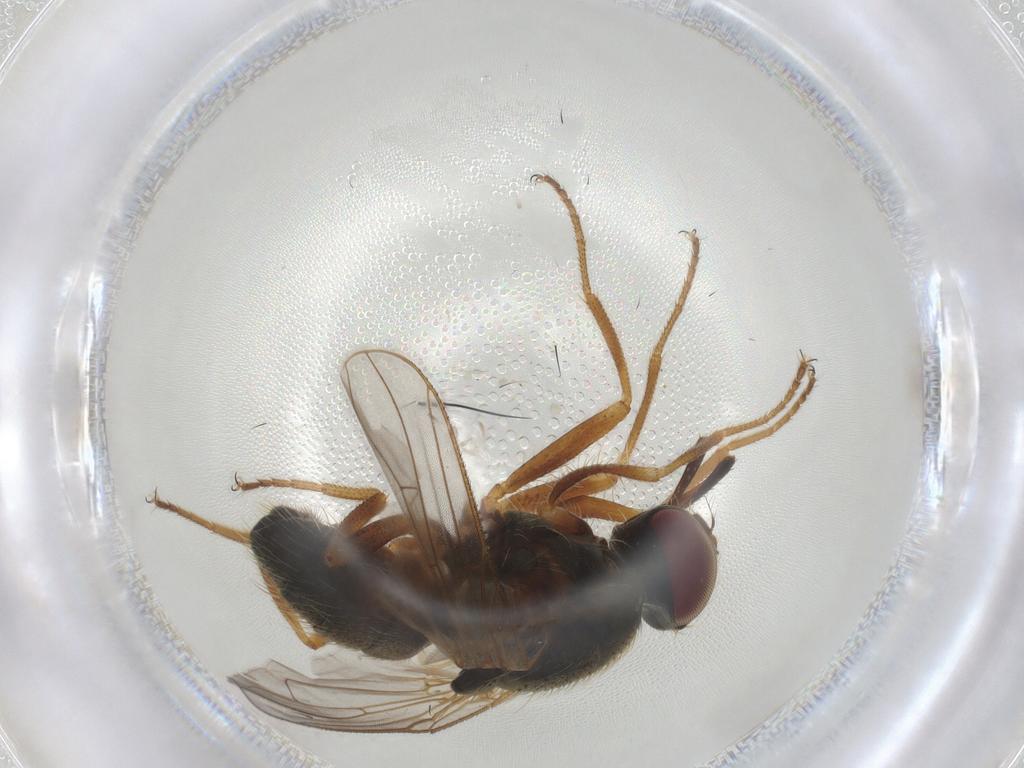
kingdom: Animalia
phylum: Arthropoda
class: Insecta
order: Diptera
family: Muscidae
